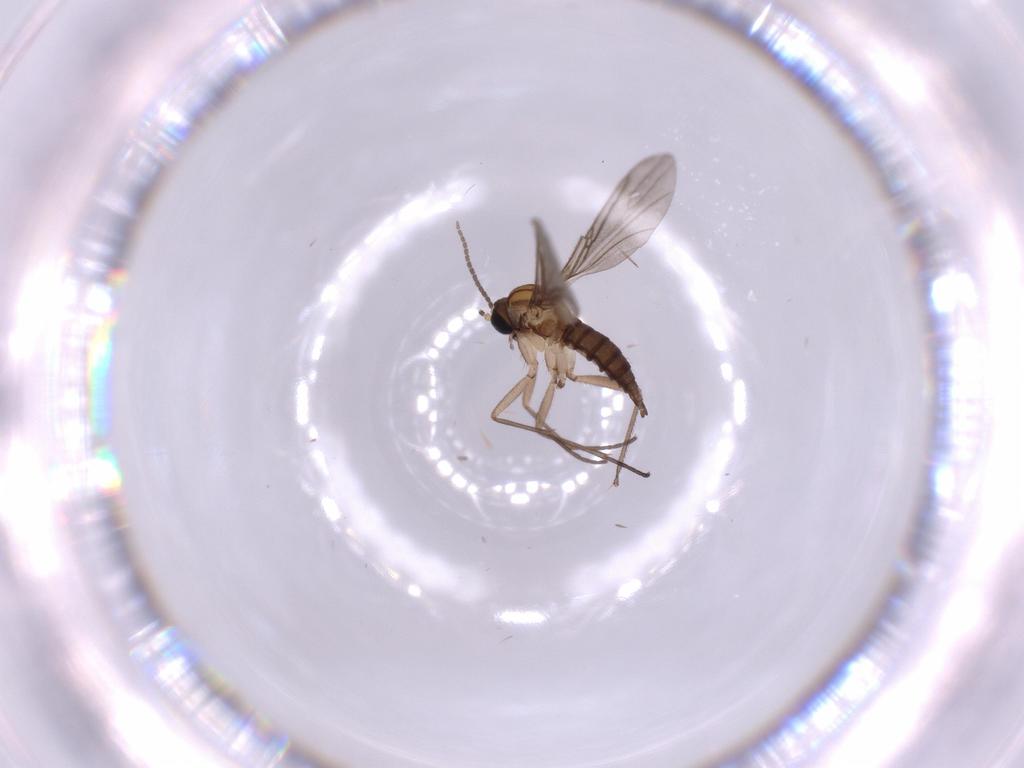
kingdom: Animalia
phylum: Arthropoda
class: Insecta
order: Diptera
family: Sciaridae
